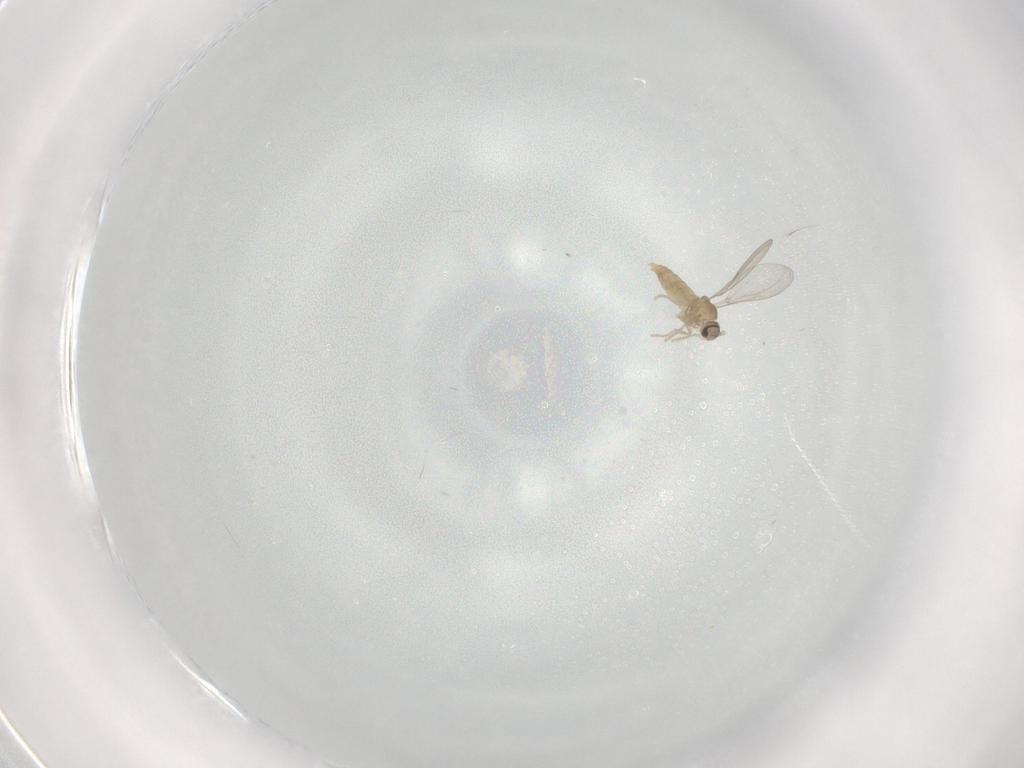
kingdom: Animalia
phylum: Arthropoda
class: Insecta
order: Diptera
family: Cecidomyiidae
